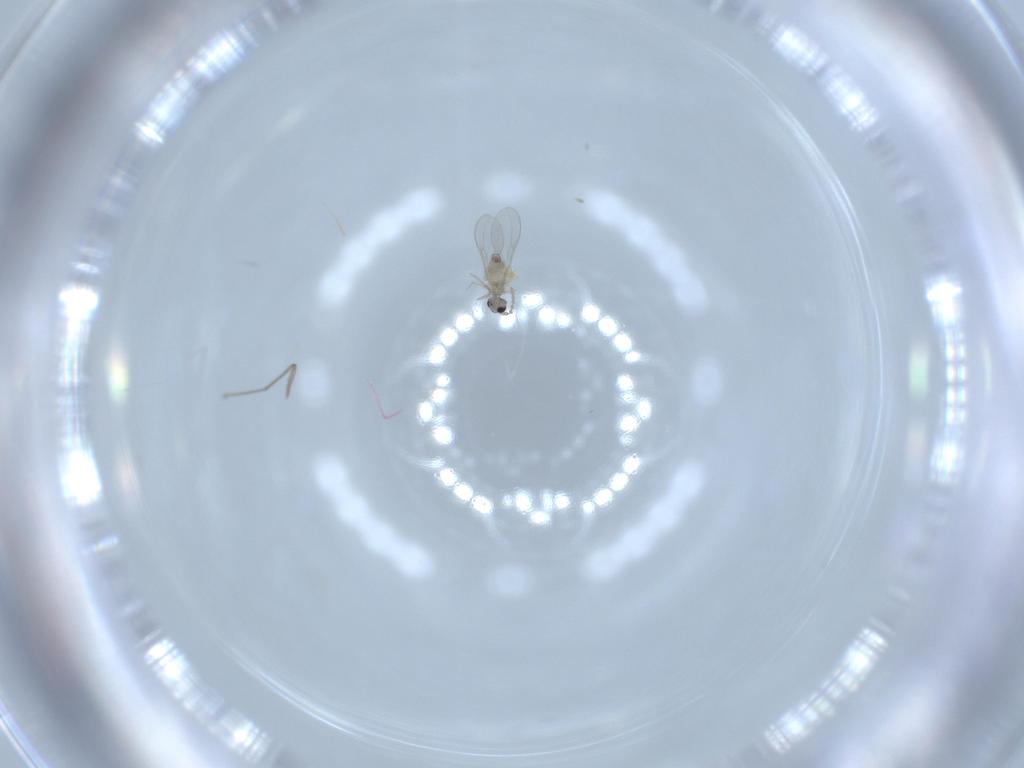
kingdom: Animalia
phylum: Arthropoda
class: Insecta
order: Diptera
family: Cecidomyiidae
